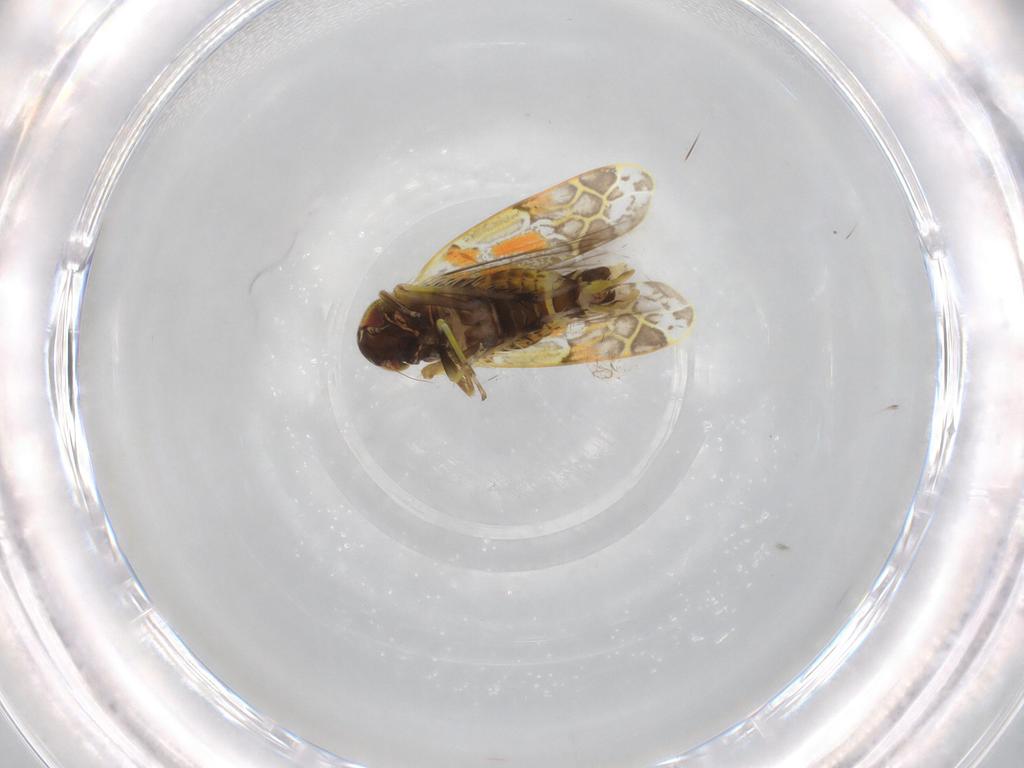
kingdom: Animalia
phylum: Arthropoda
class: Insecta
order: Hemiptera
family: Cicadellidae
